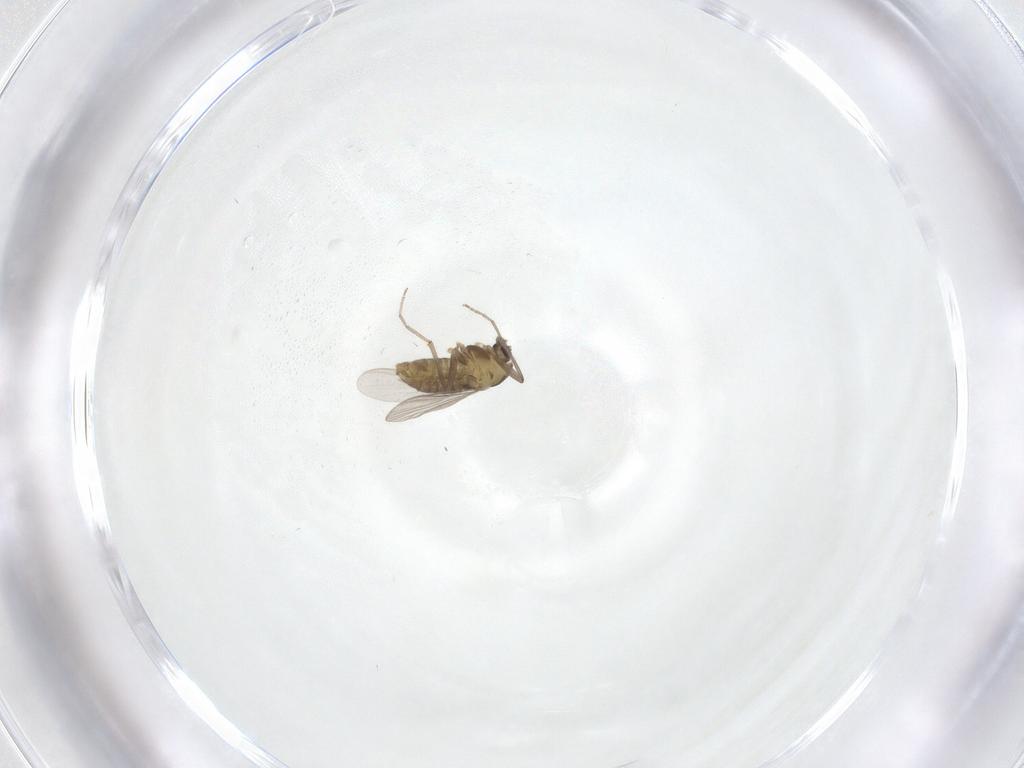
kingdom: Animalia
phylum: Arthropoda
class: Insecta
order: Diptera
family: Chironomidae
